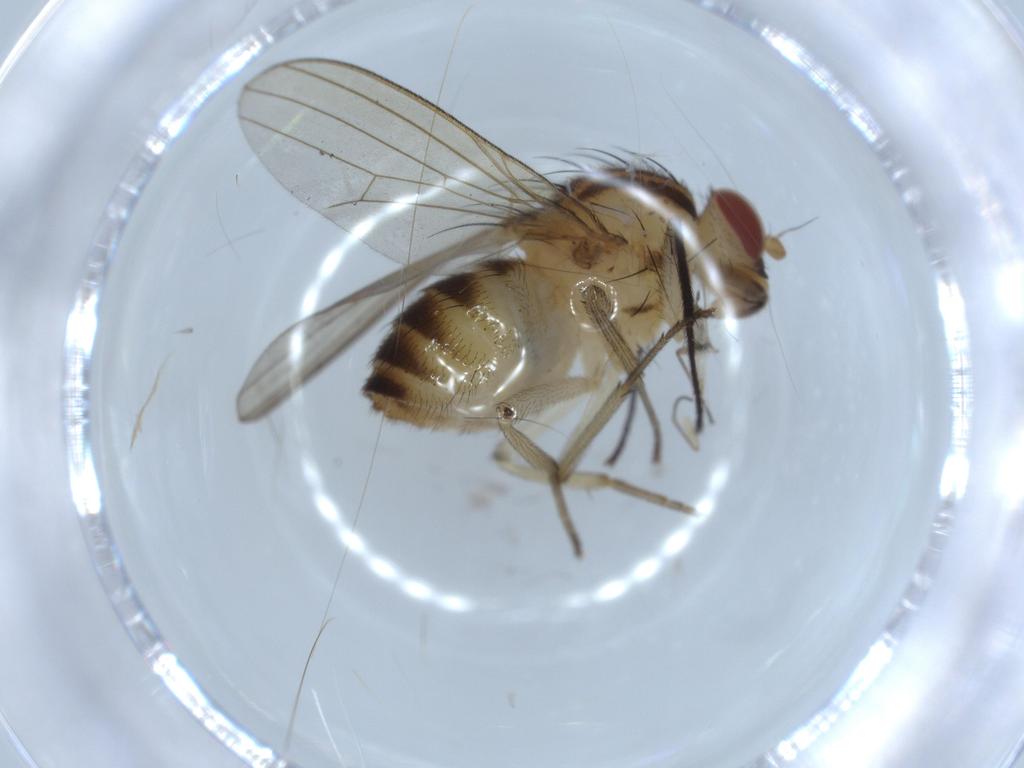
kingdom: Animalia
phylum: Arthropoda
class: Insecta
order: Diptera
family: Cecidomyiidae
